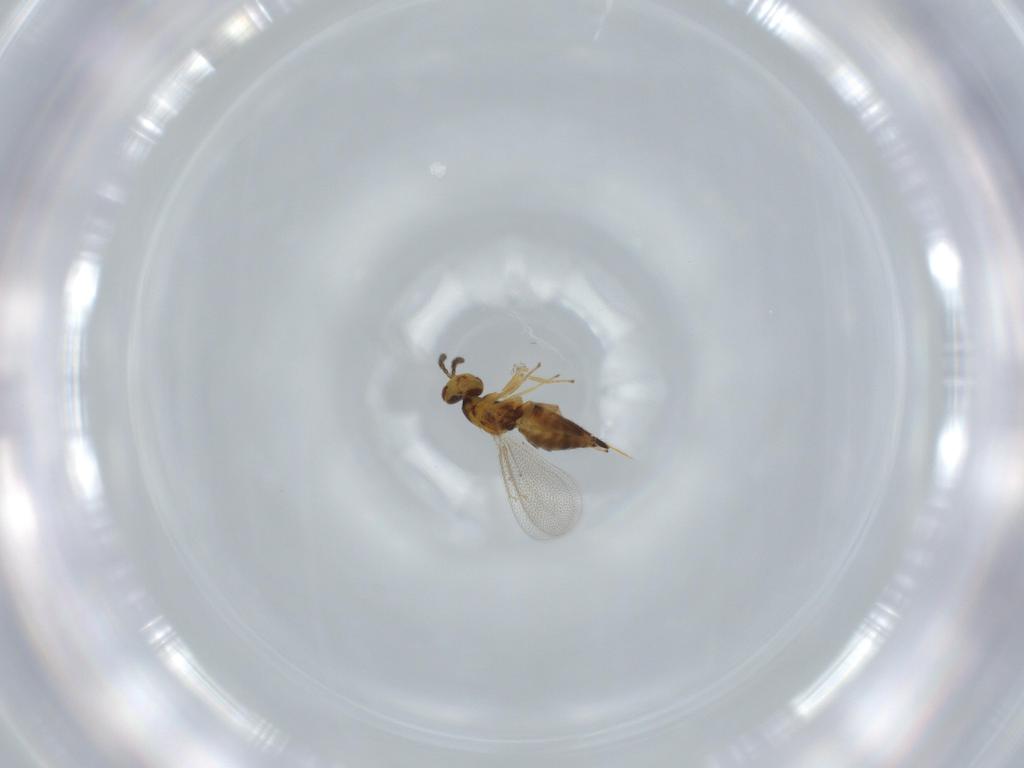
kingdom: Animalia
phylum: Arthropoda
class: Insecta
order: Hymenoptera
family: Eulophidae
